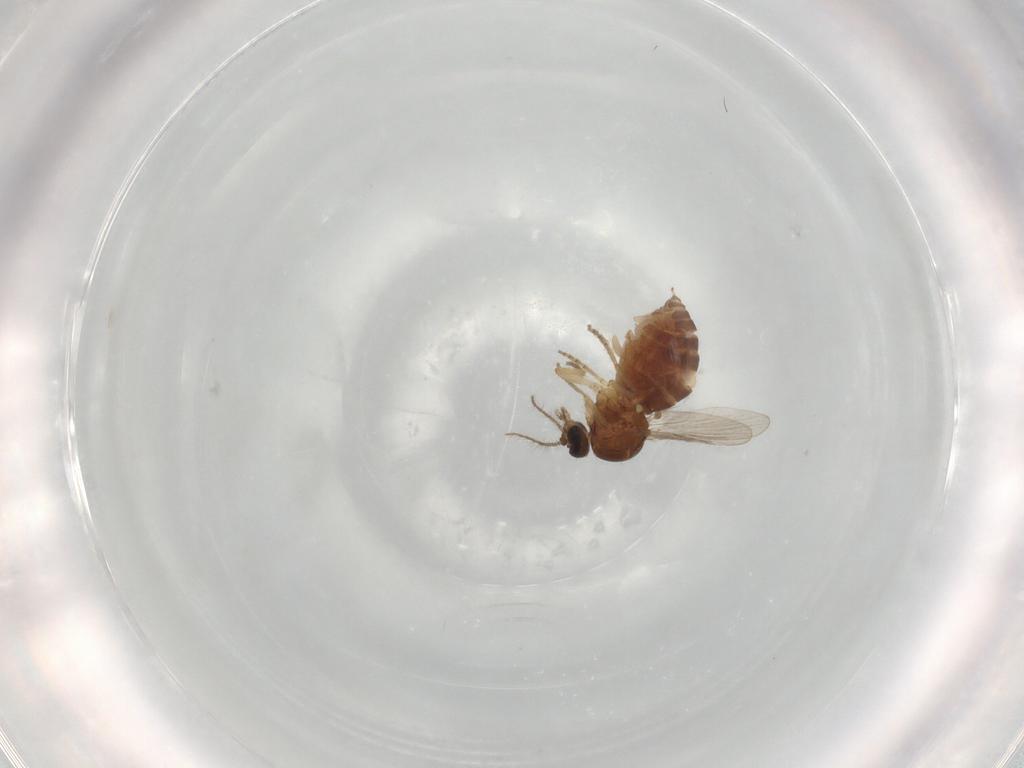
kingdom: Animalia
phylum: Arthropoda
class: Insecta
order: Diptera
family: Ceratopogonidae
